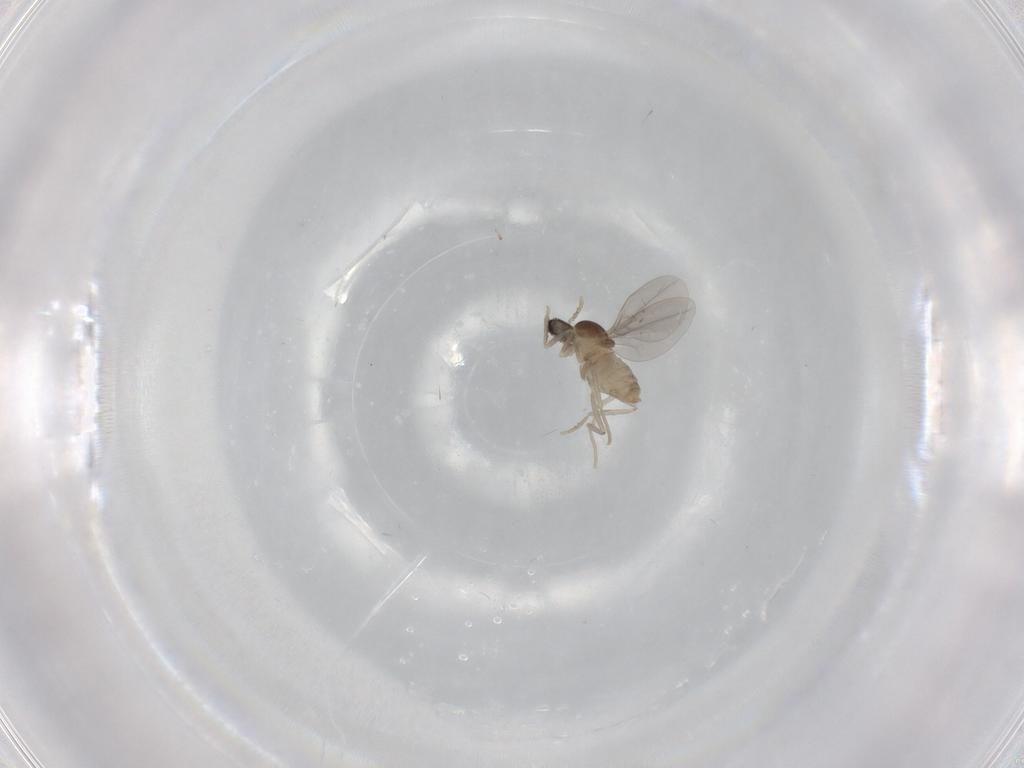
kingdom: Animalia
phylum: Arthropoda
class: Insecta
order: Diptera
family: Cecidomyiidae
